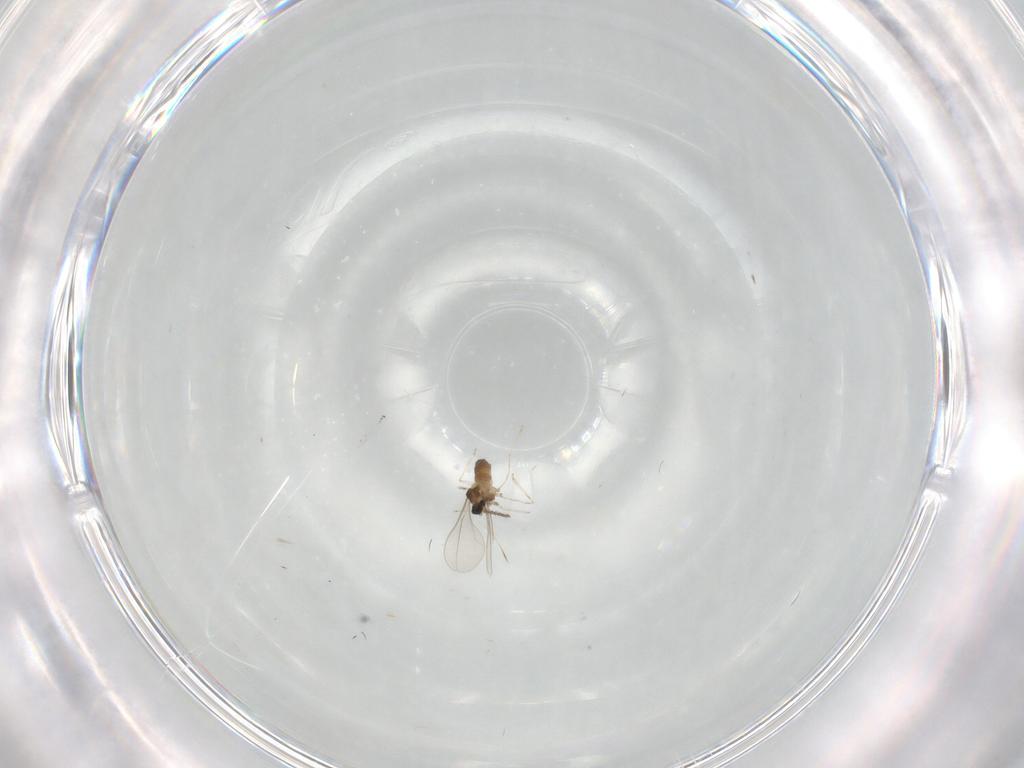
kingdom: Animalia
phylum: Arthropoda
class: Insecta
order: Diptera
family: Cecidomyiidae
